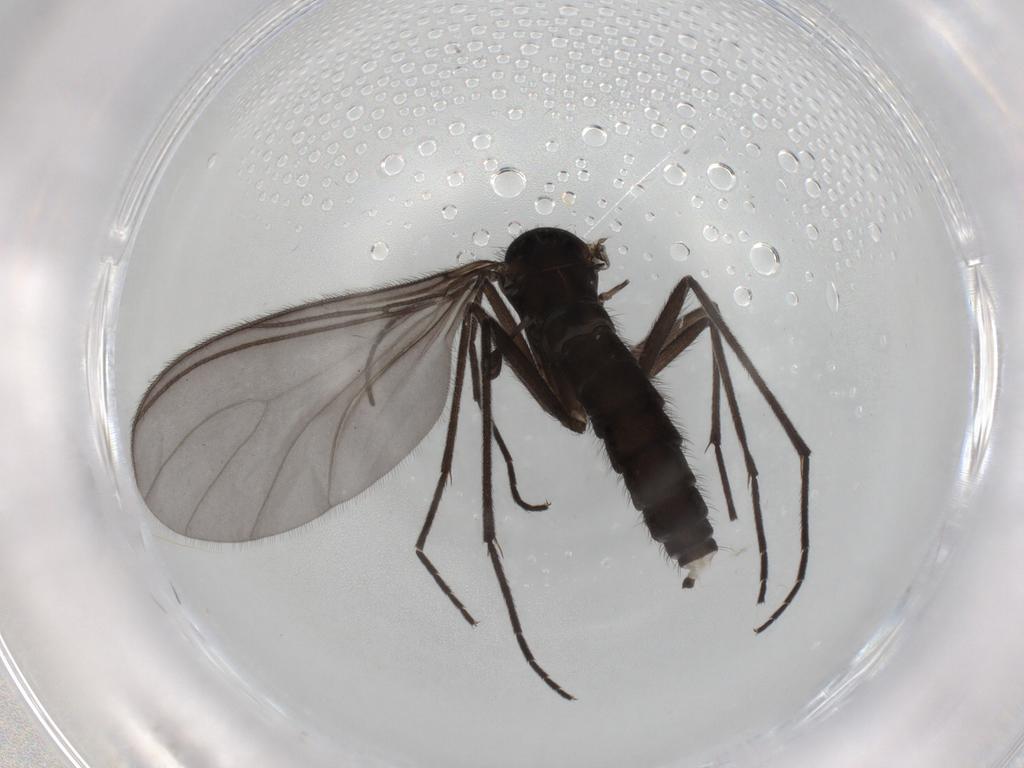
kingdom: Animalia
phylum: Arthropoda
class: Insecta
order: Diptera
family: Sciaridae
